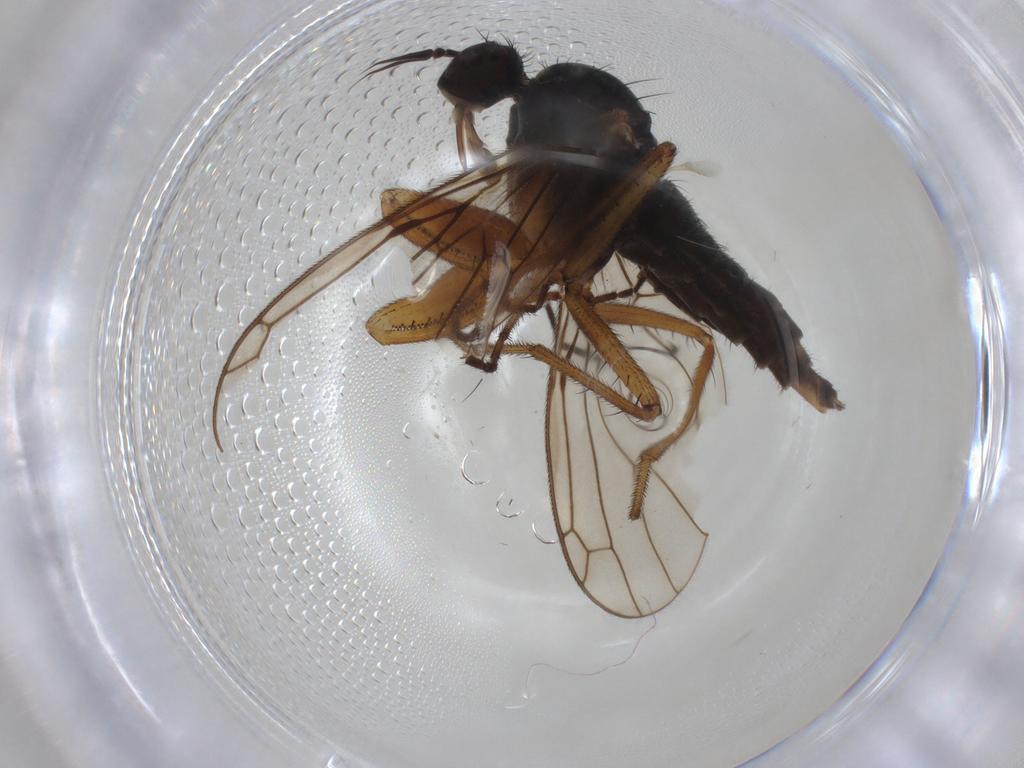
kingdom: Animalia
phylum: Arthropoda
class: Insecta
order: Diptera
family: Empididae
